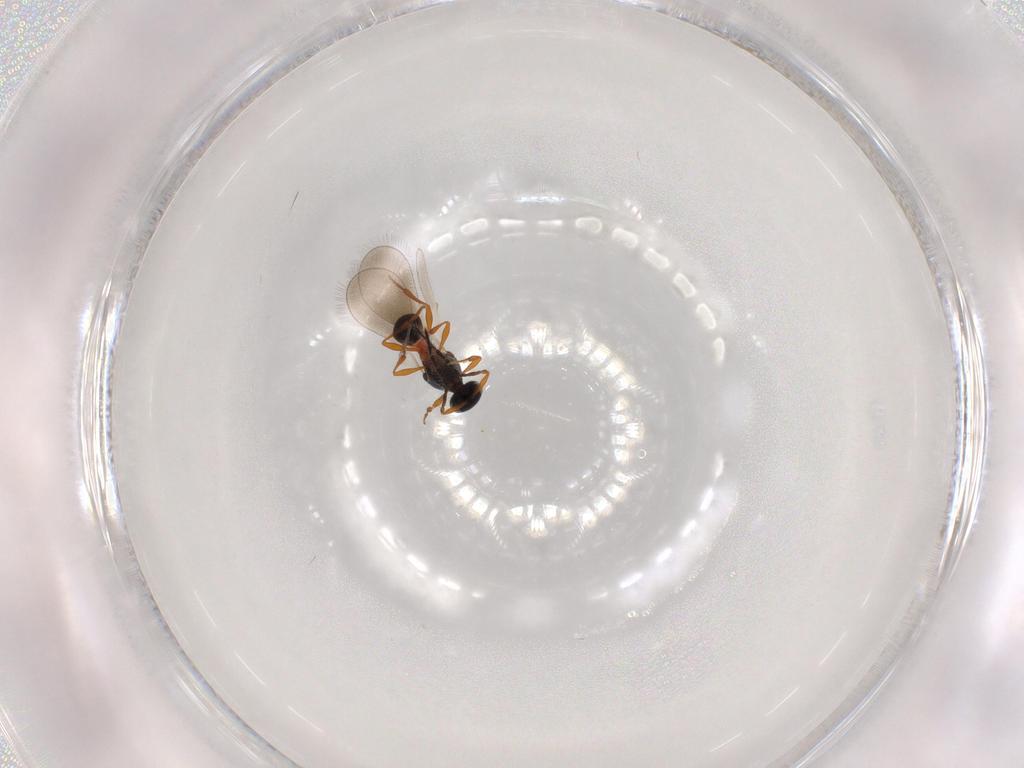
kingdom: Animalia
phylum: Arthropoda
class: Insecta
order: Hymenoptera
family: Platygastridae
